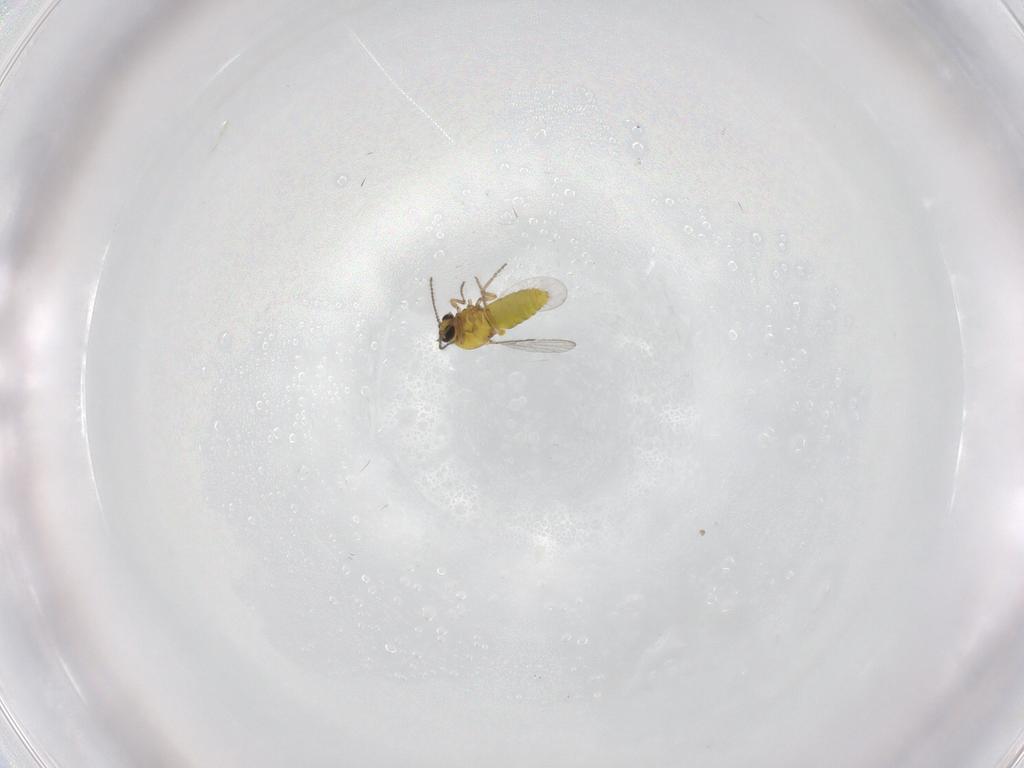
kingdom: Animalia
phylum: Arthropoda
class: Insecta
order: Diptera
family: Cecidomyiidae
